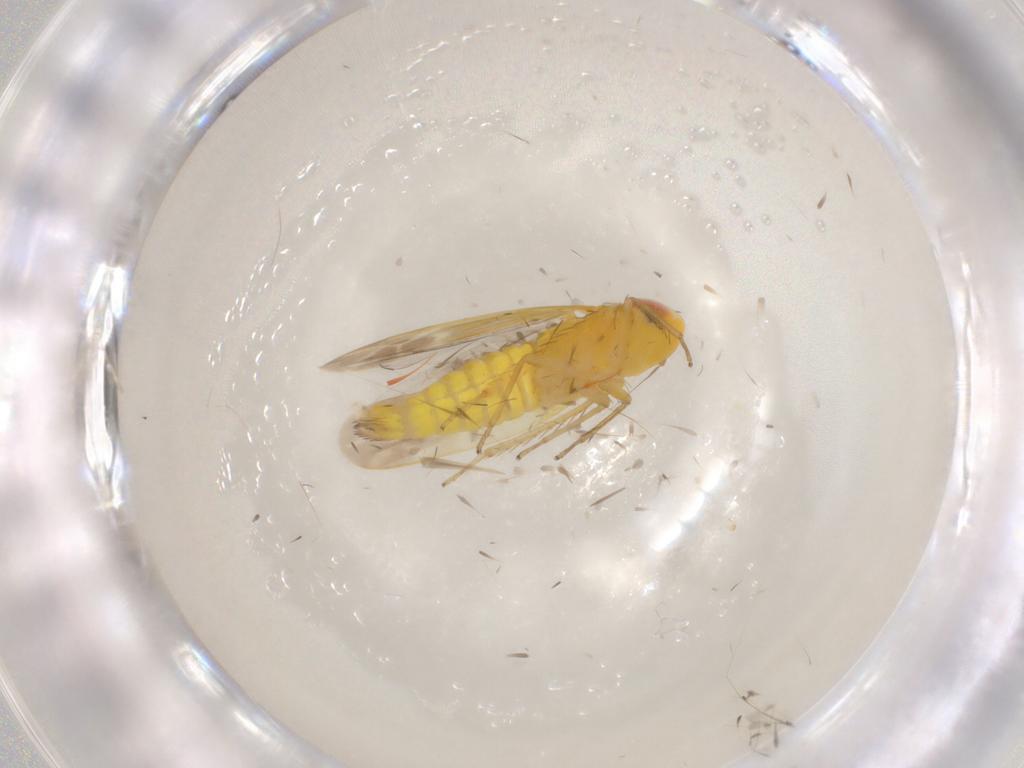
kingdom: Animalia
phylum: Arthropoda
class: Insecta
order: Hemiptera
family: Cicadellidae
